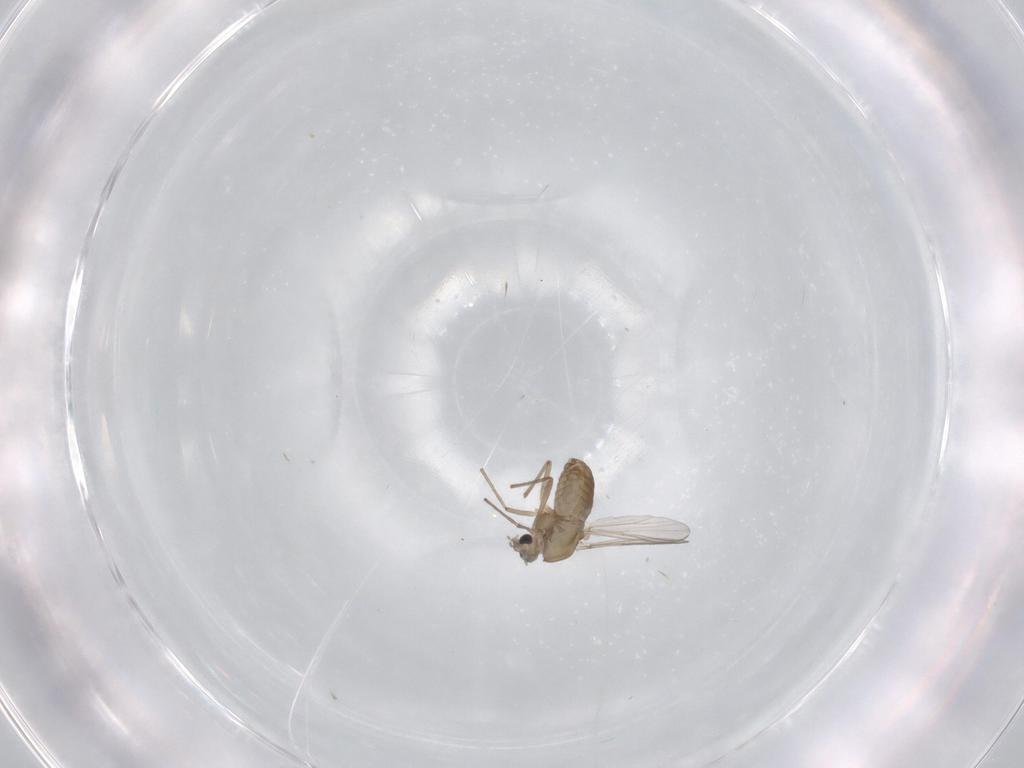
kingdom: Animalia
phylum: Arthropoda
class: Insecta
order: Diptera
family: Chironomidae
